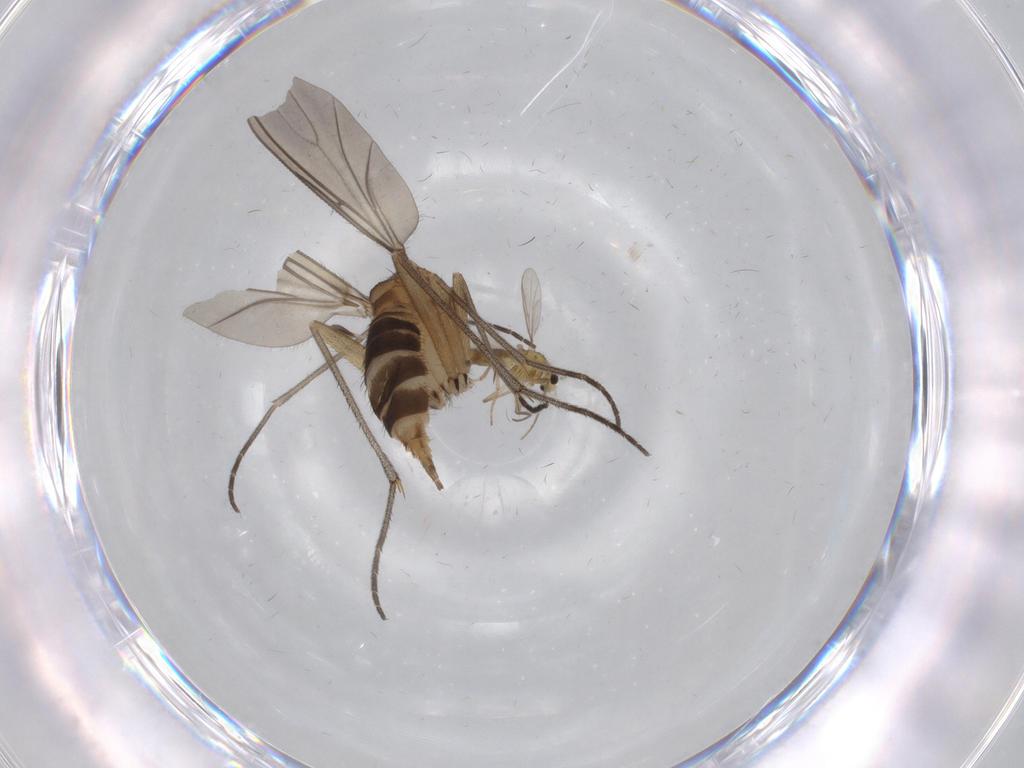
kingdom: Animalia
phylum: Arthropoda
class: Insecta
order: Diptera
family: Sciaridae
